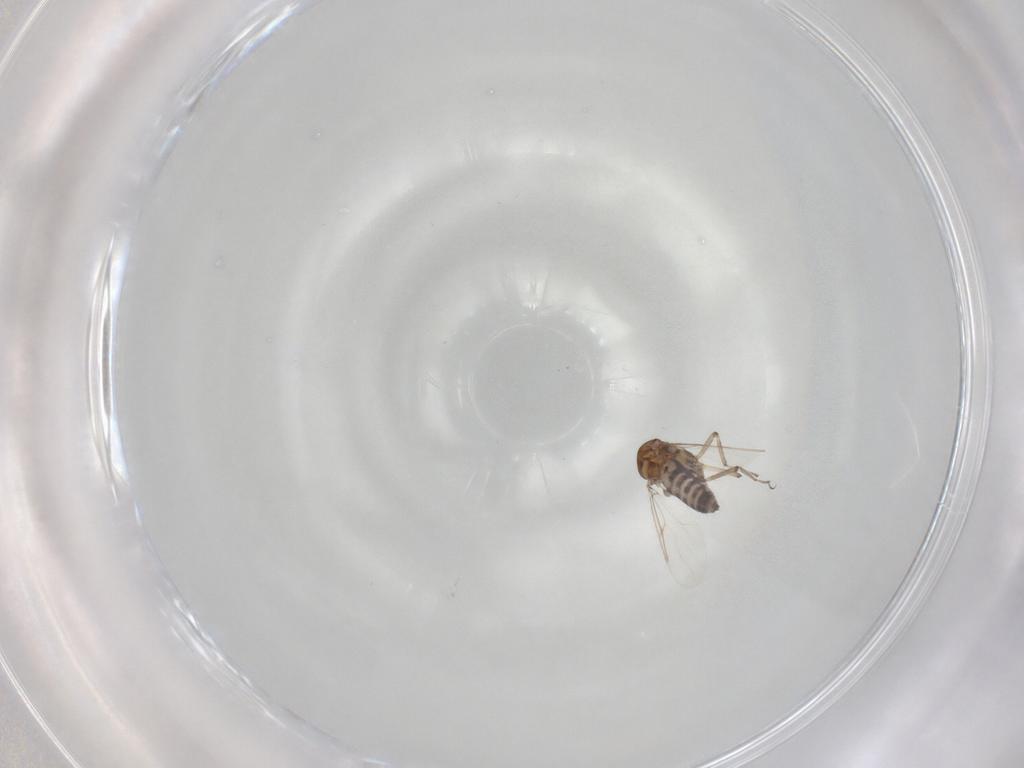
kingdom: Animalia
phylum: Arthropoda
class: Insecta
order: Diptera
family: Ceratopogonidae
